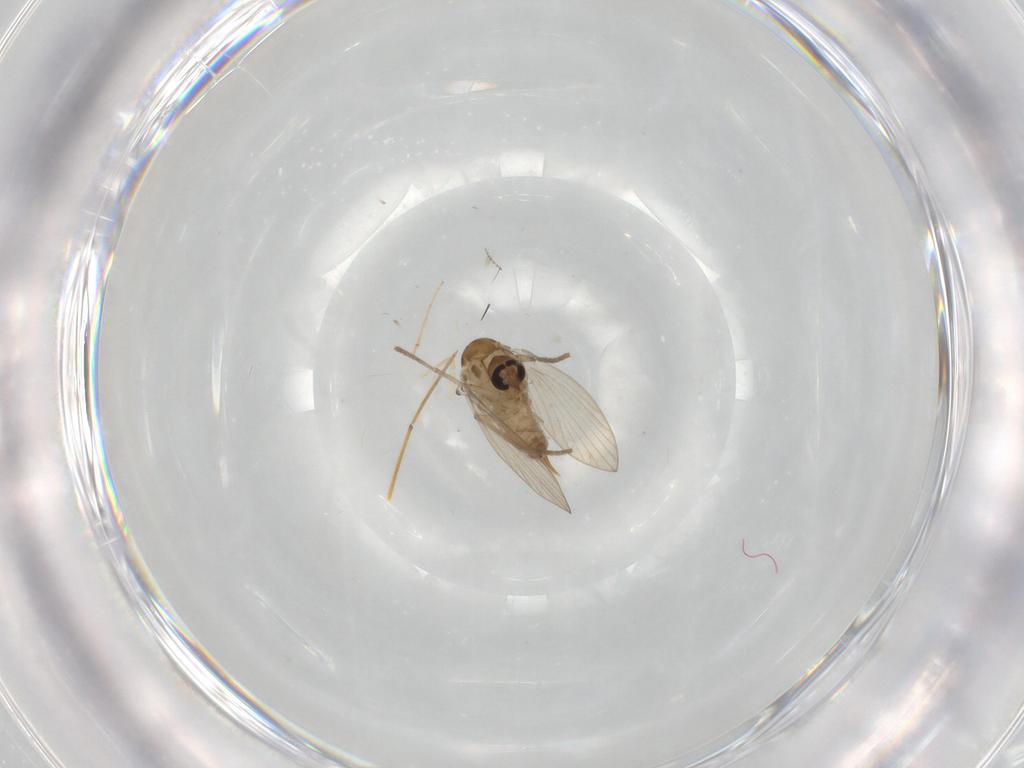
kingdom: Animalia
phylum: Arthropoda
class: Insecta
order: Diptera
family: Psychodidae
